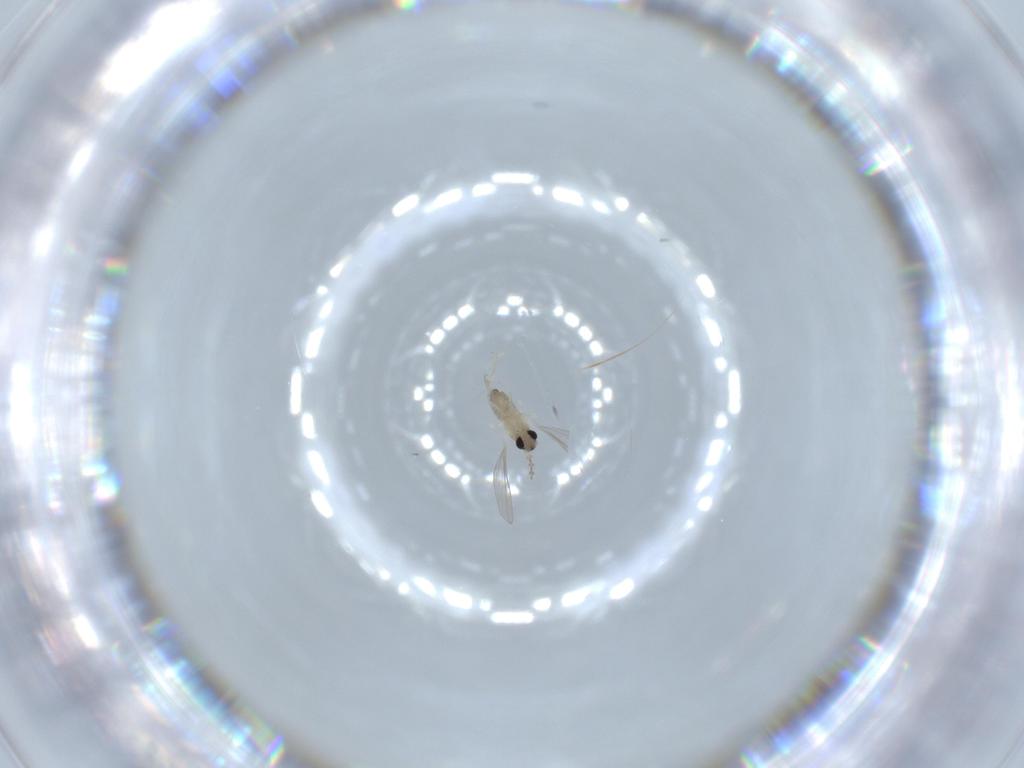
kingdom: Animalia
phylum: Arthropoda
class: Insecta
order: Diptera
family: Cecidomyiidae
